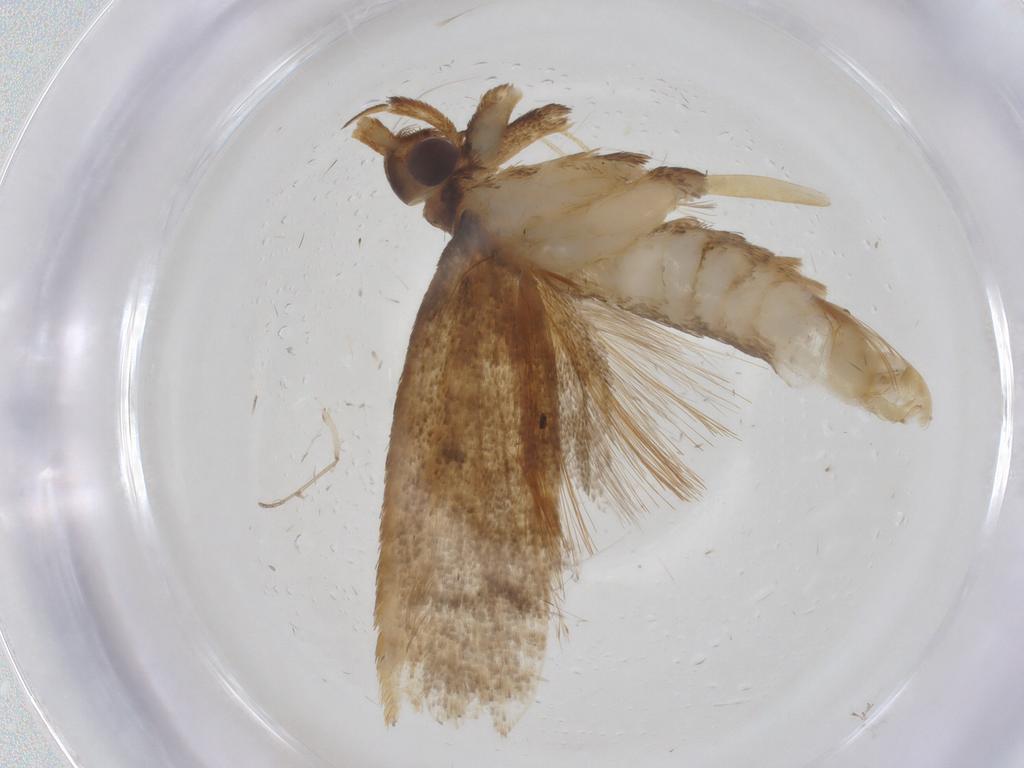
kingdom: Animalia
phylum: Arthropoda
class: Insecta
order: Lepidoptera
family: Lecithoceridae
